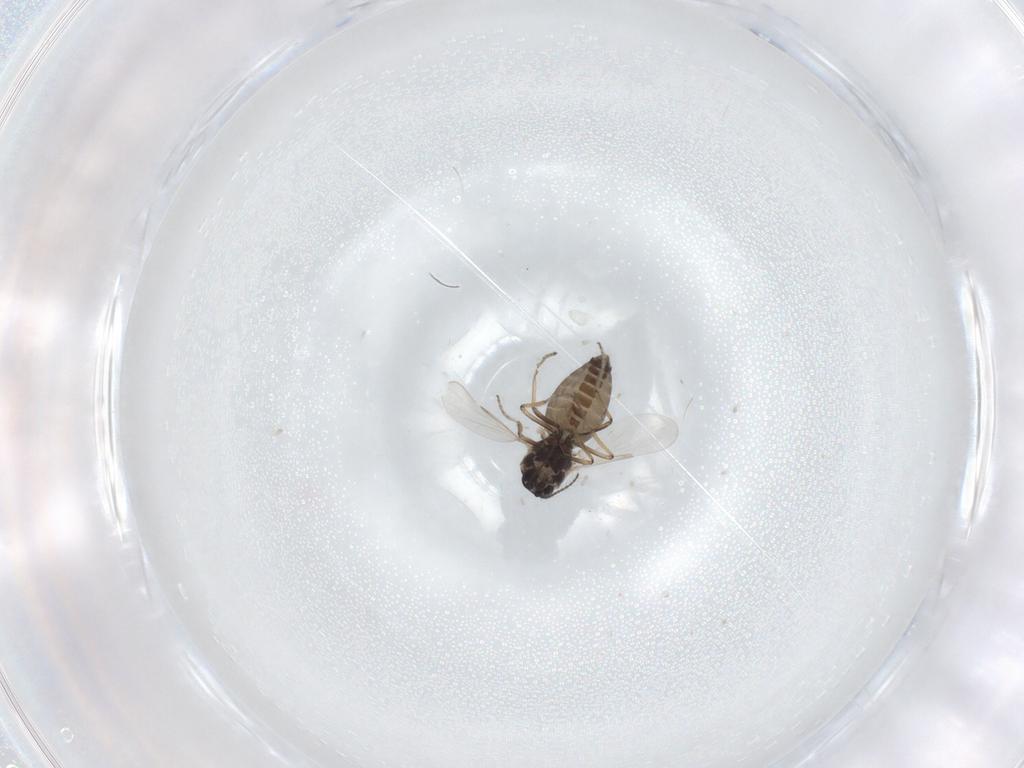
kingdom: Animalia
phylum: Arthropoda
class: Insecta
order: Diptera
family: Ceratopogonidae
